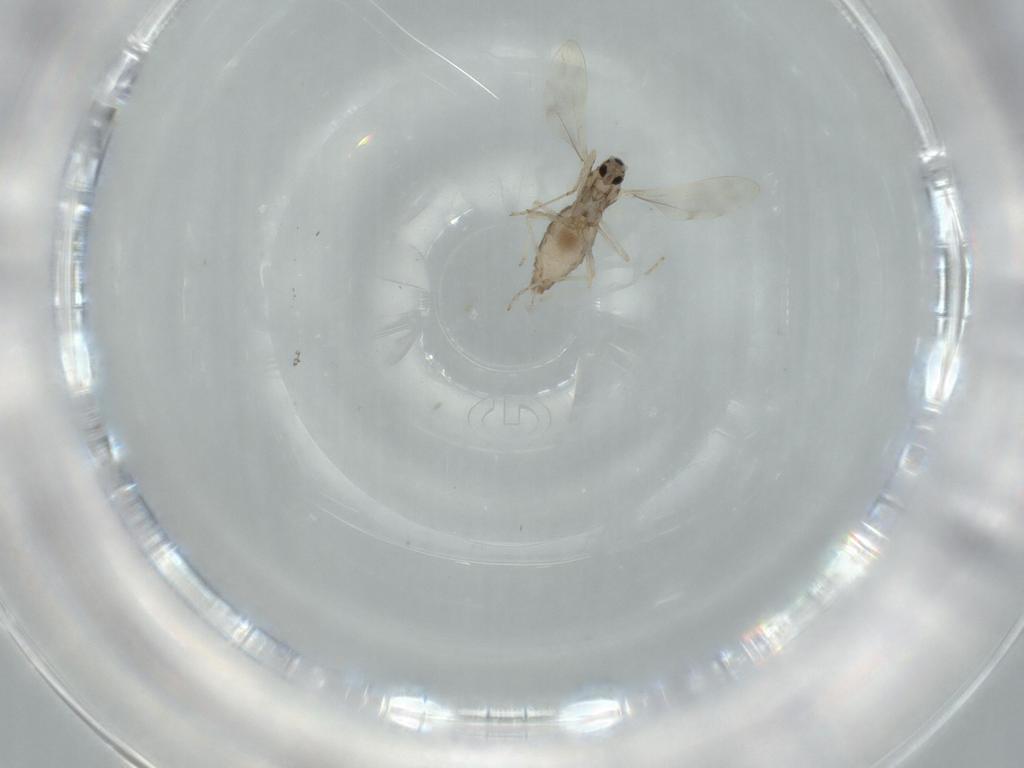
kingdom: Animalia
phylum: Arthropoda
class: Insecta
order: Diptera
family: Cecidomyiidae
